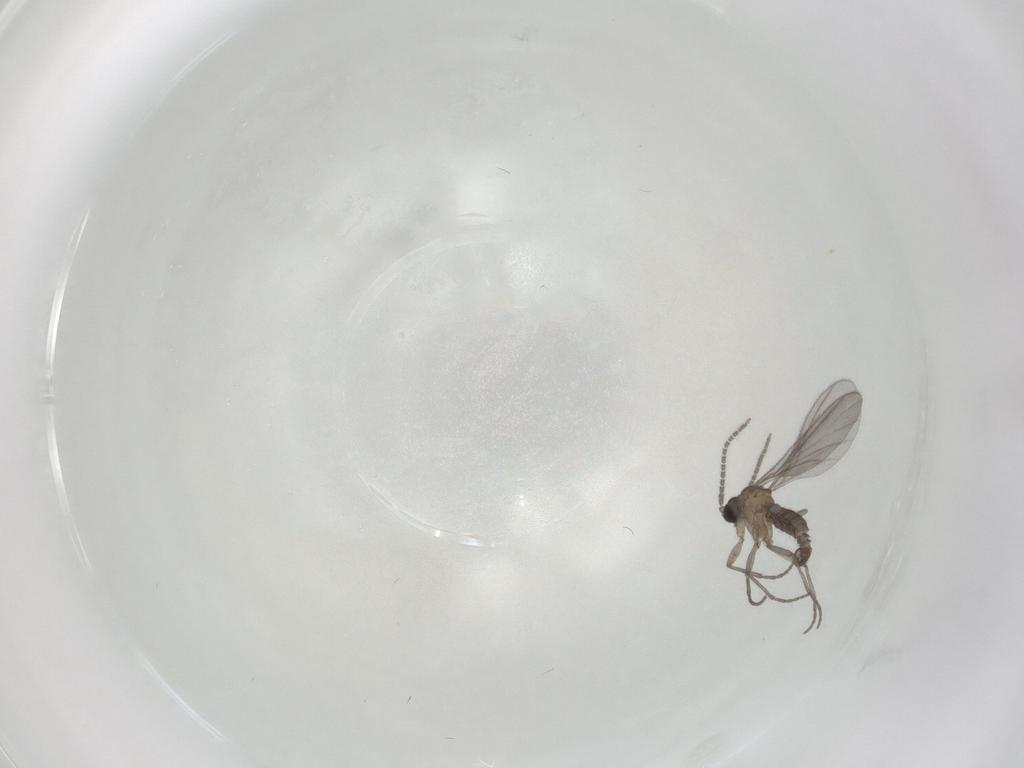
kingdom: Animalia
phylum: Arthropoda
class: Insecta
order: Diptera
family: Sciaridae
